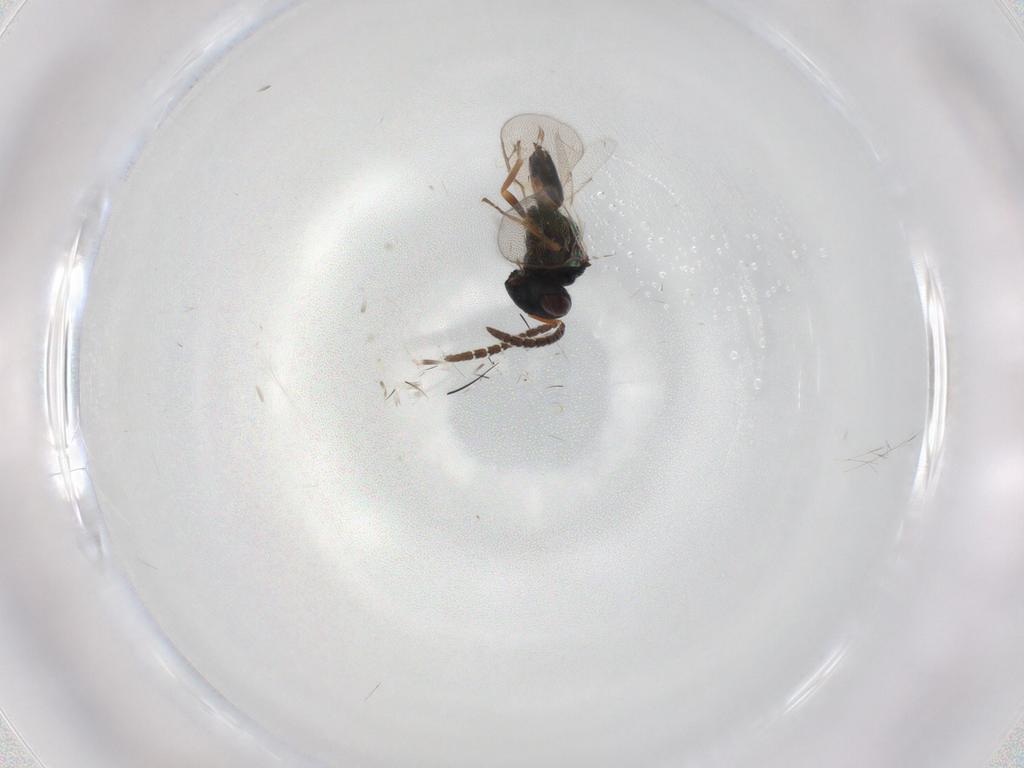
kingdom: Animalia
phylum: Arthropoda
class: Insecta
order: Hymenoptera
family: Pteromalidae
